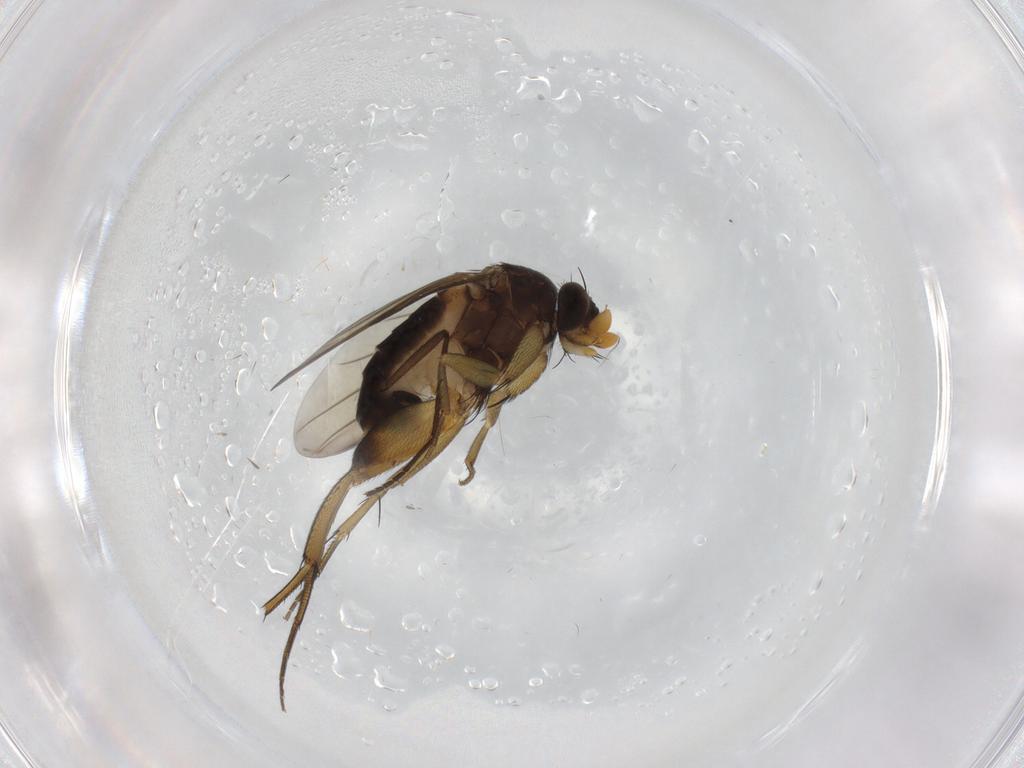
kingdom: Animalia
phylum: Arthropoda
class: Insecta
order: Diptera
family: Phoridae
